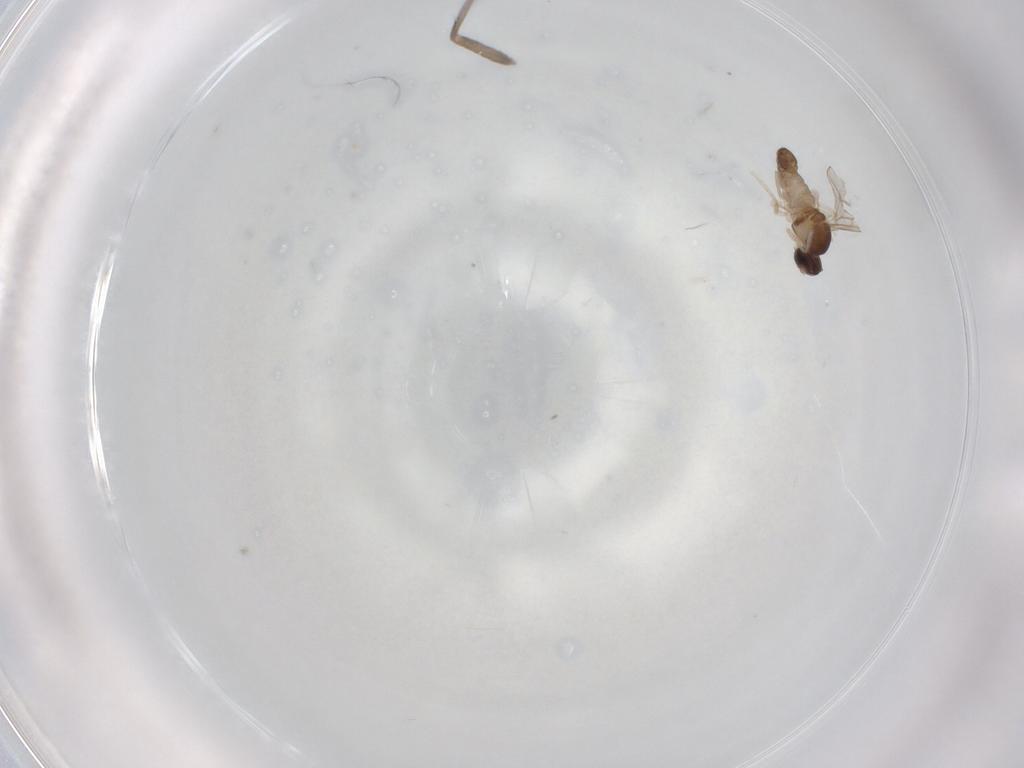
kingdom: Animalia
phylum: Arthropoda
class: Insecta
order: Diptera
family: Cecidomyiidae
